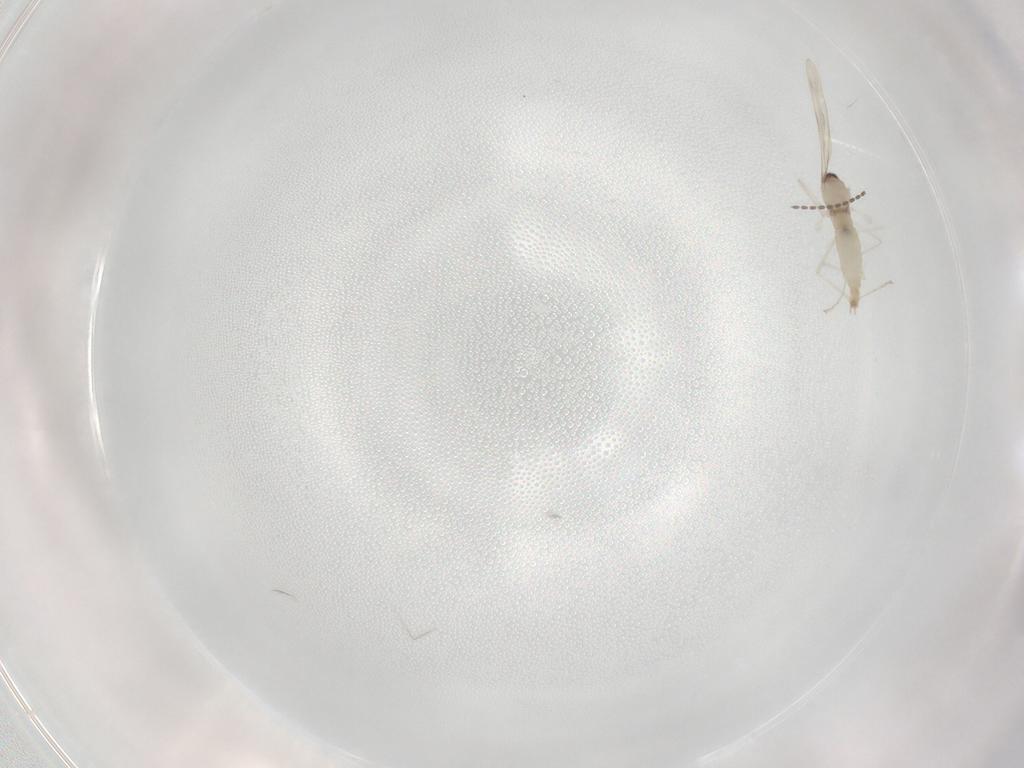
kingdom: Animalia
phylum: Arthropoda
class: Insecta
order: Diptera
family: Cecidomyiidae
